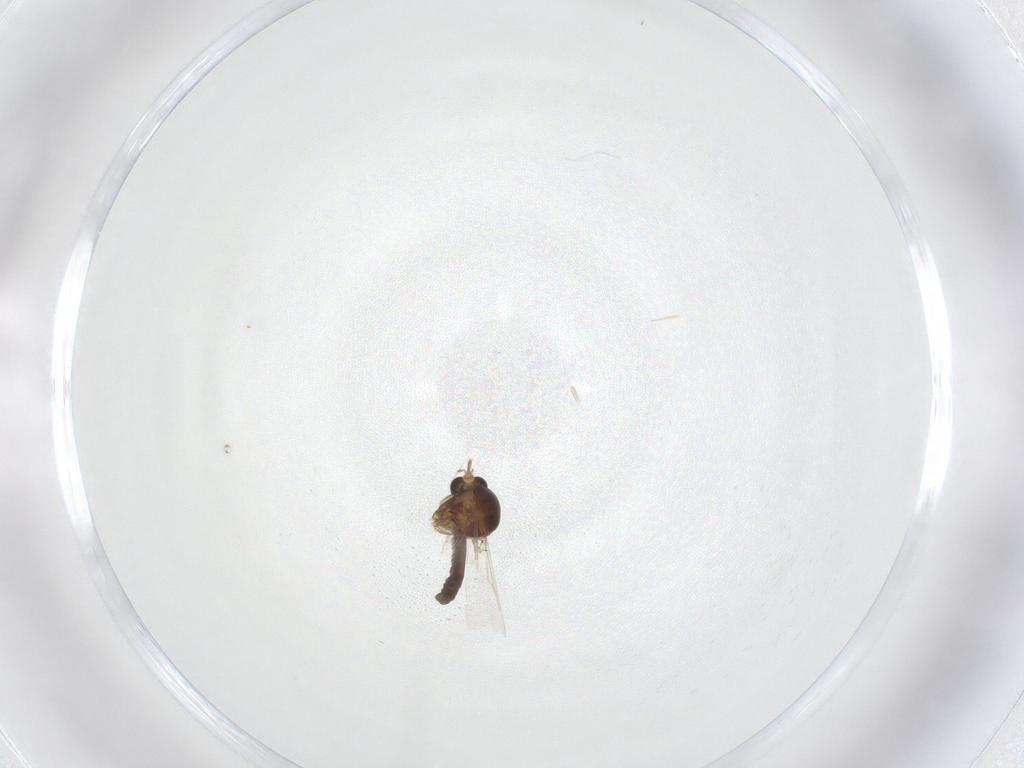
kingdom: Animalia
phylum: Arthropoda
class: Insecta
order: Diptera
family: Ceratopogonidae
